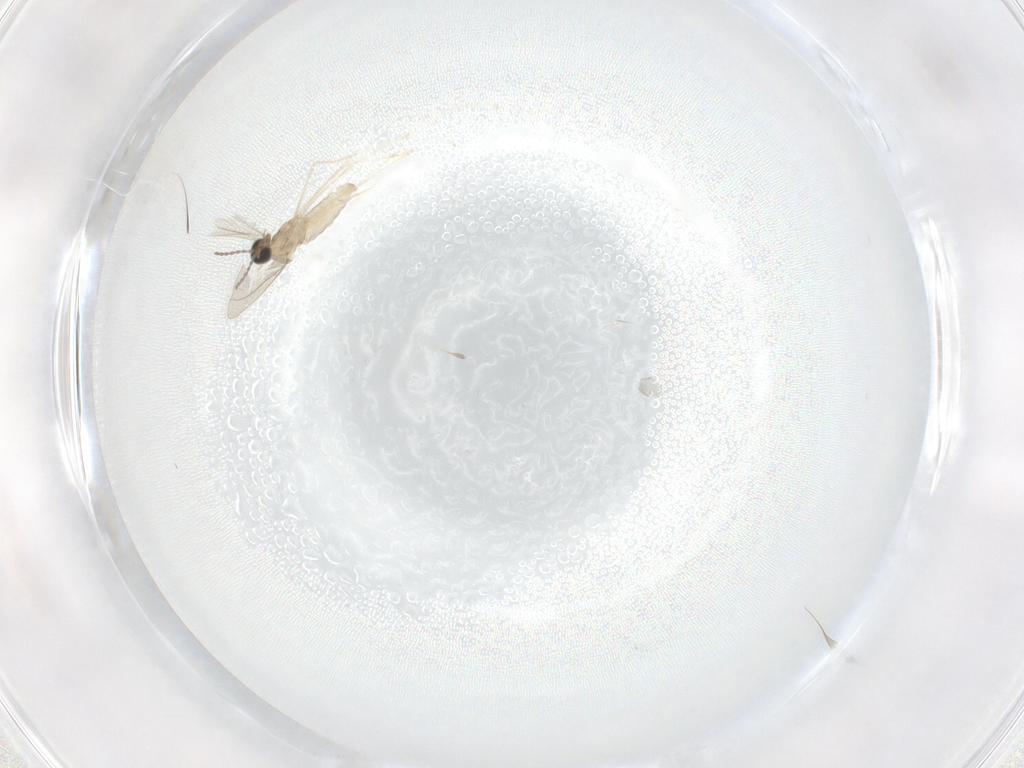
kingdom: Animalia
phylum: Arthropoda
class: Insecta
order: Diptera
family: Cecidomyiidae
